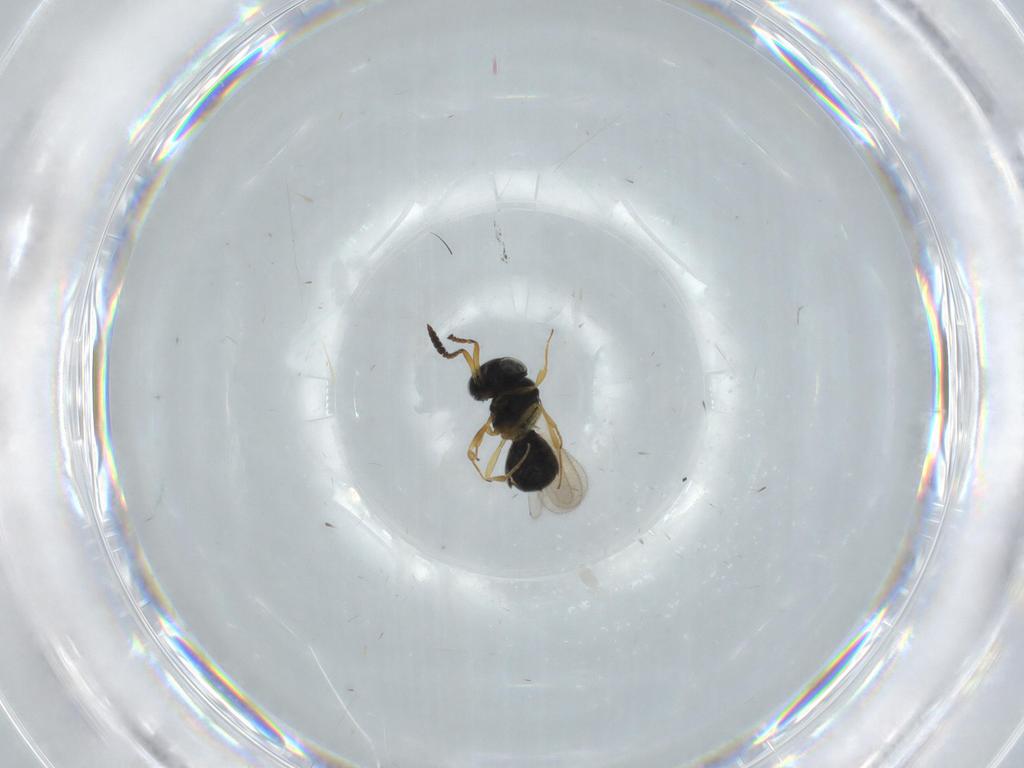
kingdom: Animalia
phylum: Arthropoda
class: Insecta
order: Hymenoptera
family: Scelionidae
